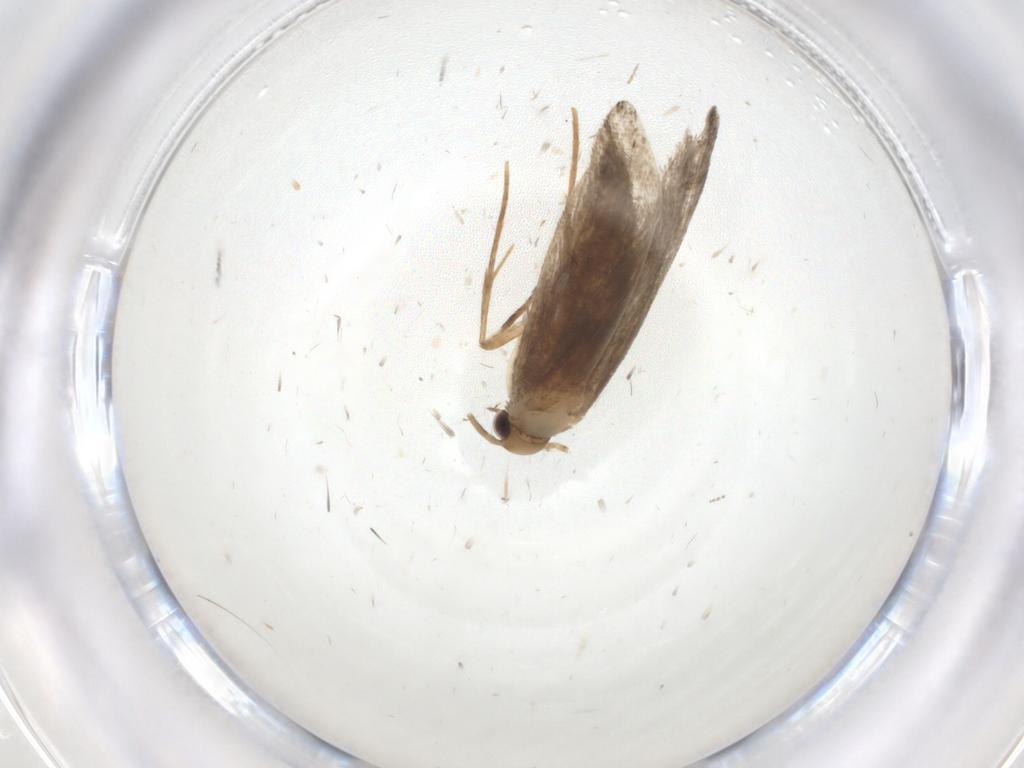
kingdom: Animalia
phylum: Arthropoda
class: Insecta
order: Lepidoptera
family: Tineidae
